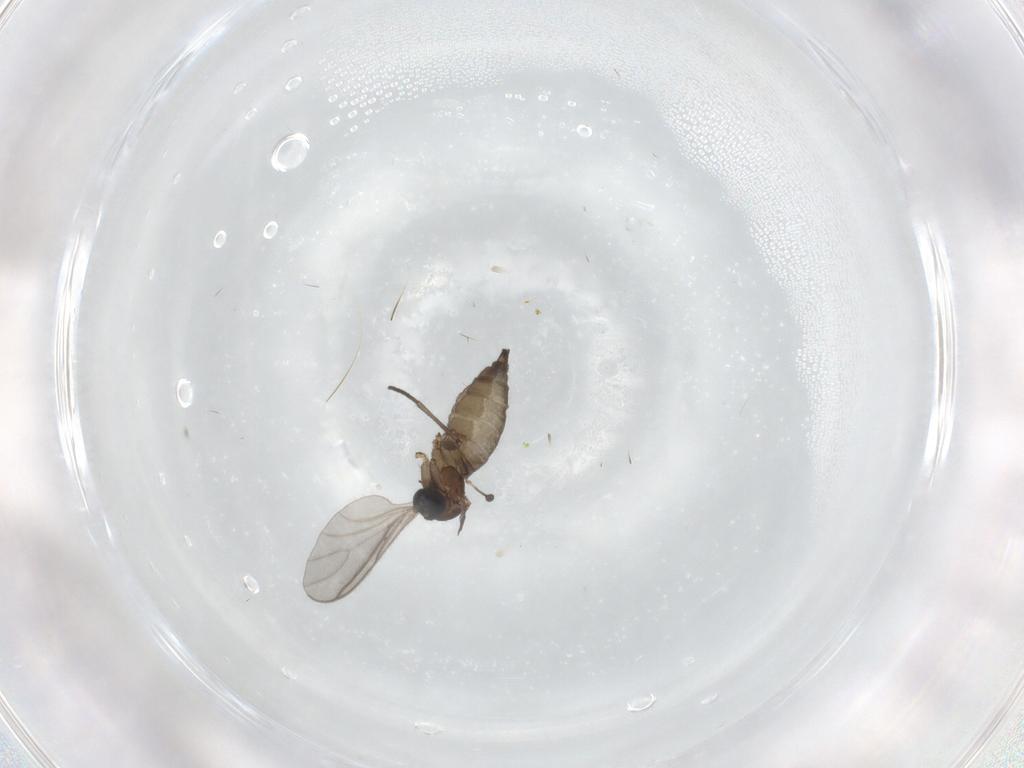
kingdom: Animalia
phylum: Arthropoda
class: Insecta
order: Diptera
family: Sciaridae
